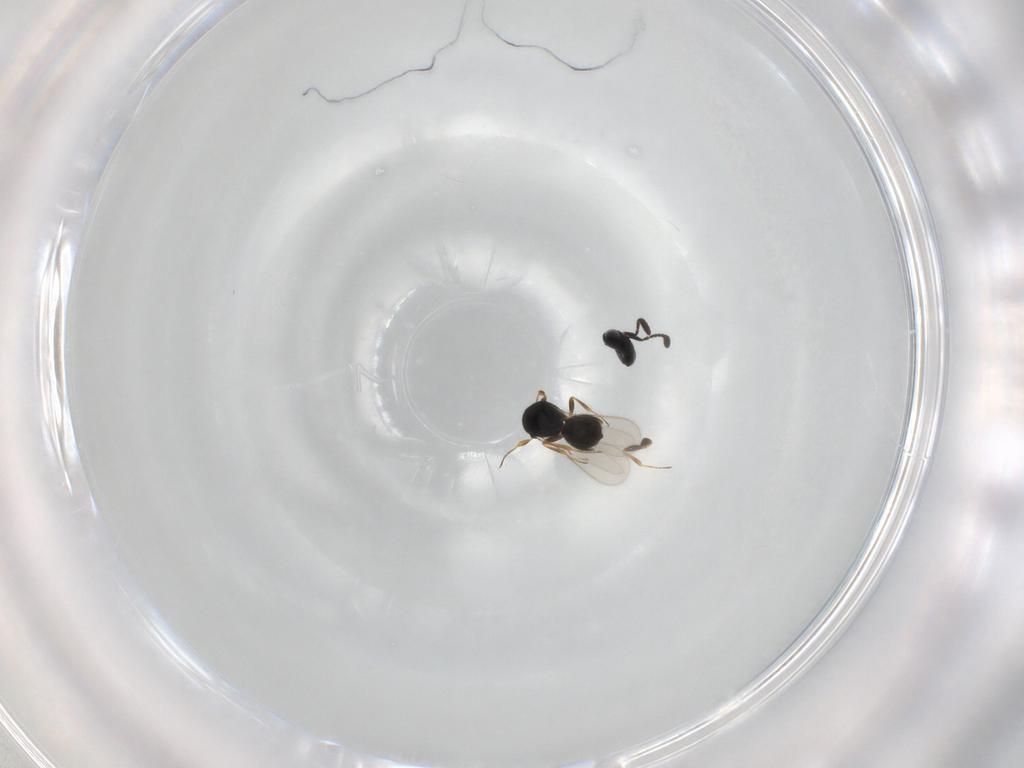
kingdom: Animalia
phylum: Arthropoda
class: Insecta
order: Hymenoptera
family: Scelionidae
